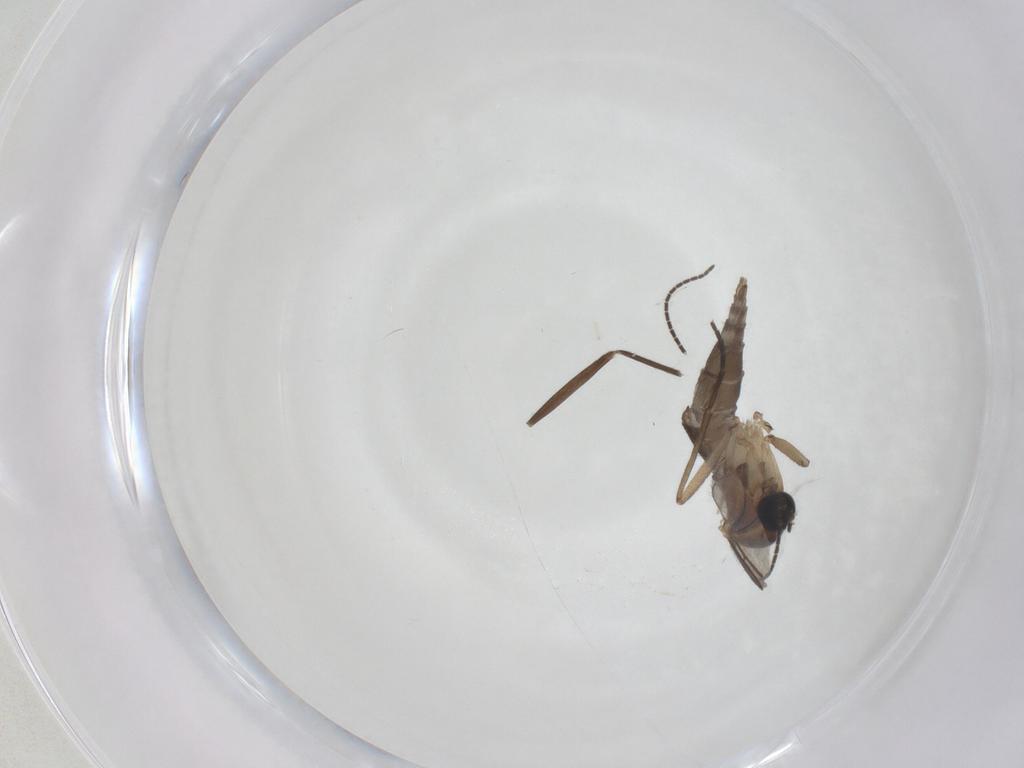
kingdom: Animalia
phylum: Arthropoda
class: Insecta
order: Diptera
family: Cecidomyiidae
